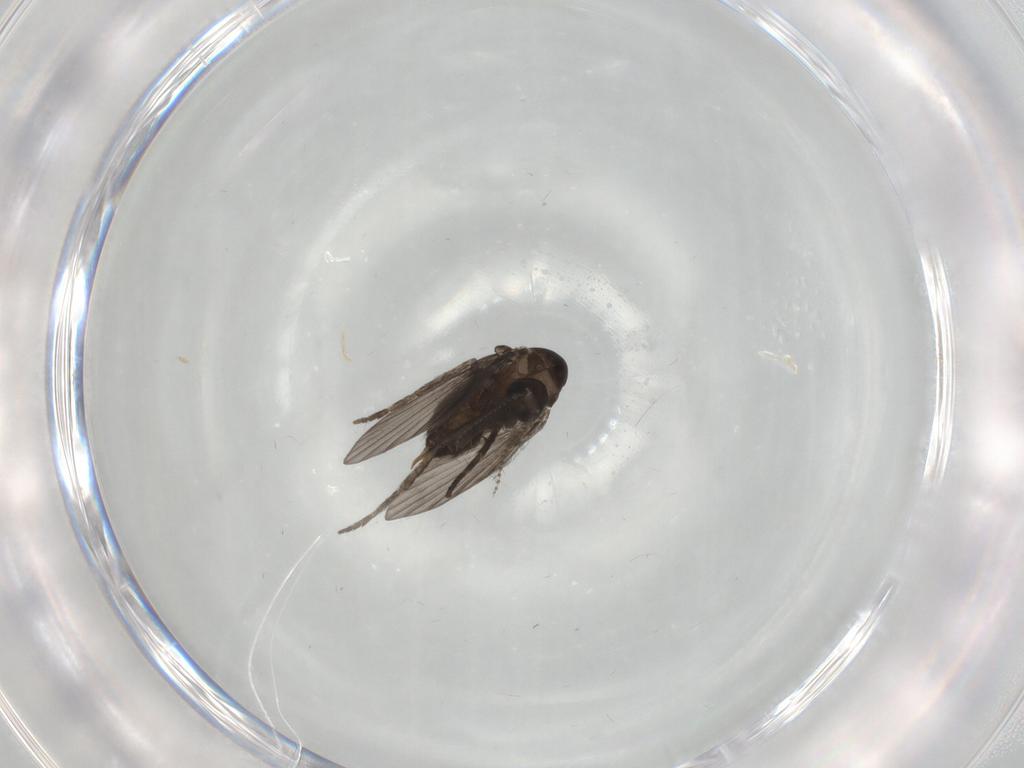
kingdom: Animalia
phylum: Arthropoda
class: Insecta
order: Diptera
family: Psychodidae
